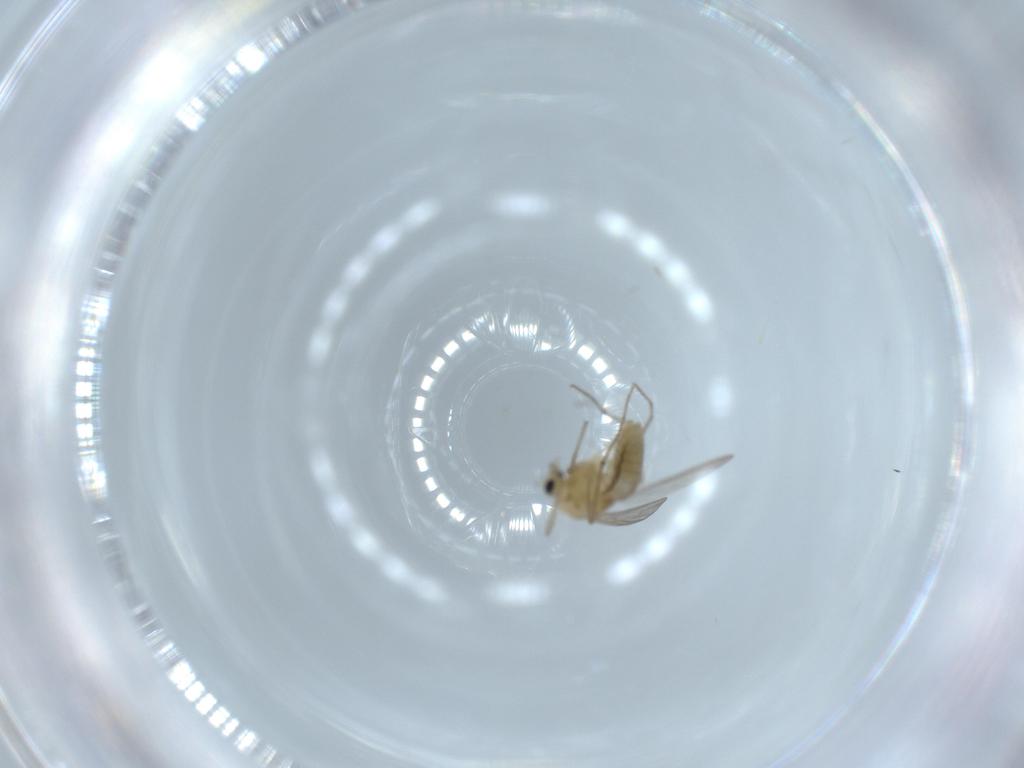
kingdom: Animalia
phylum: Arthropoda
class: Insecta
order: Diptera
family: Chironomidae
